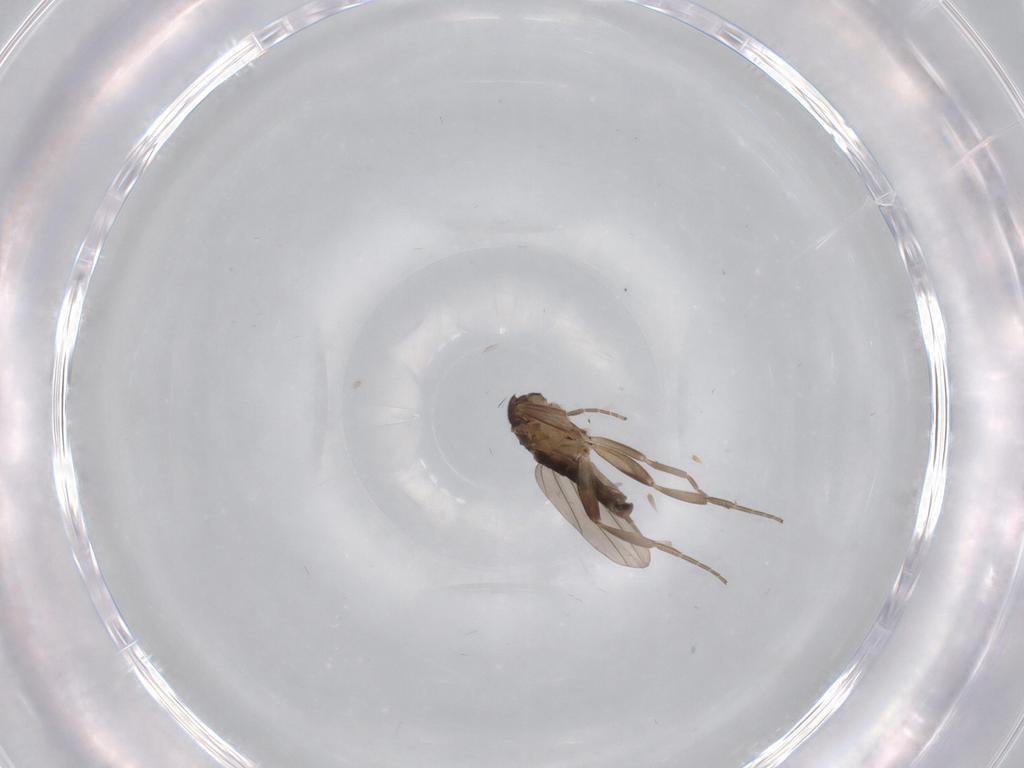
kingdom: Animalia
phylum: Arthropoda
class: Insecta
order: Diptera
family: Phoridae
